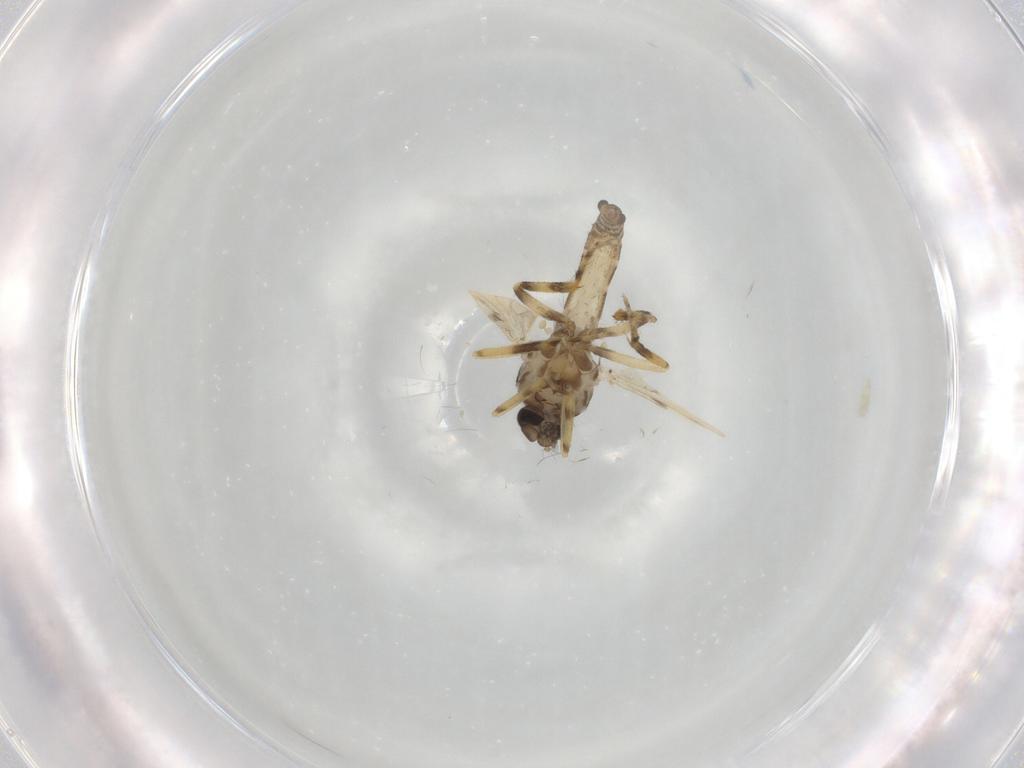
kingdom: Animalia
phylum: Arthropoda
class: Insecta
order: Diptera
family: Ceratopogonidae
